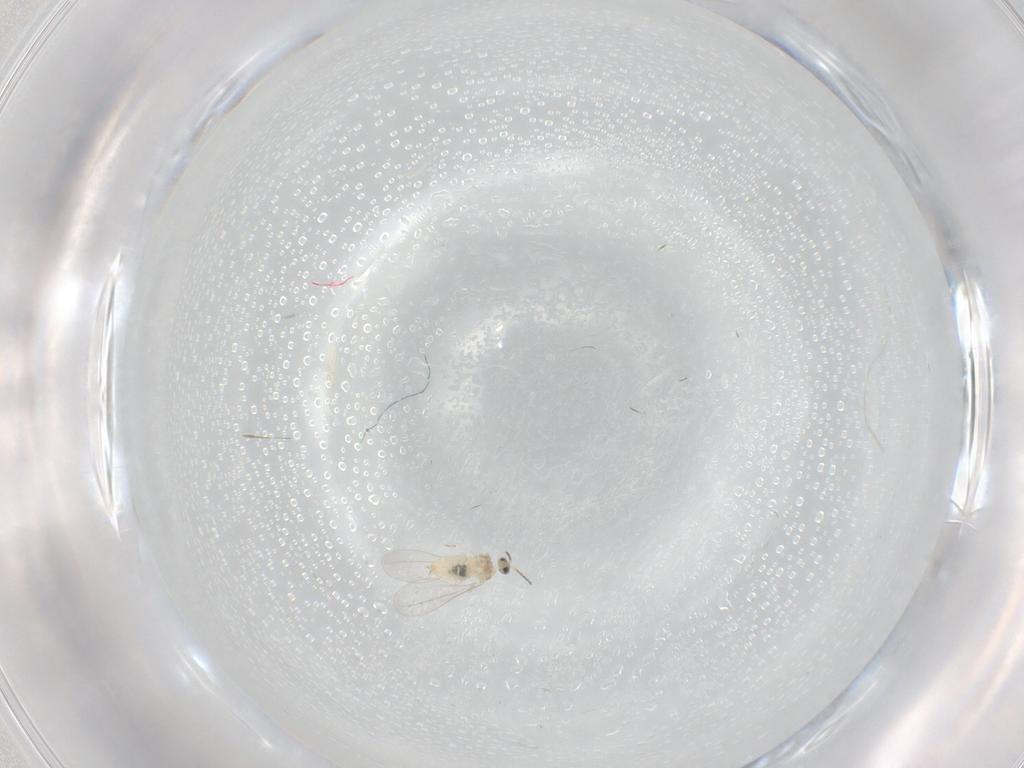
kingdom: Animalia
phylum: Arthropoda
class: Insecta
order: Diptera
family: Cecidomyiidae
